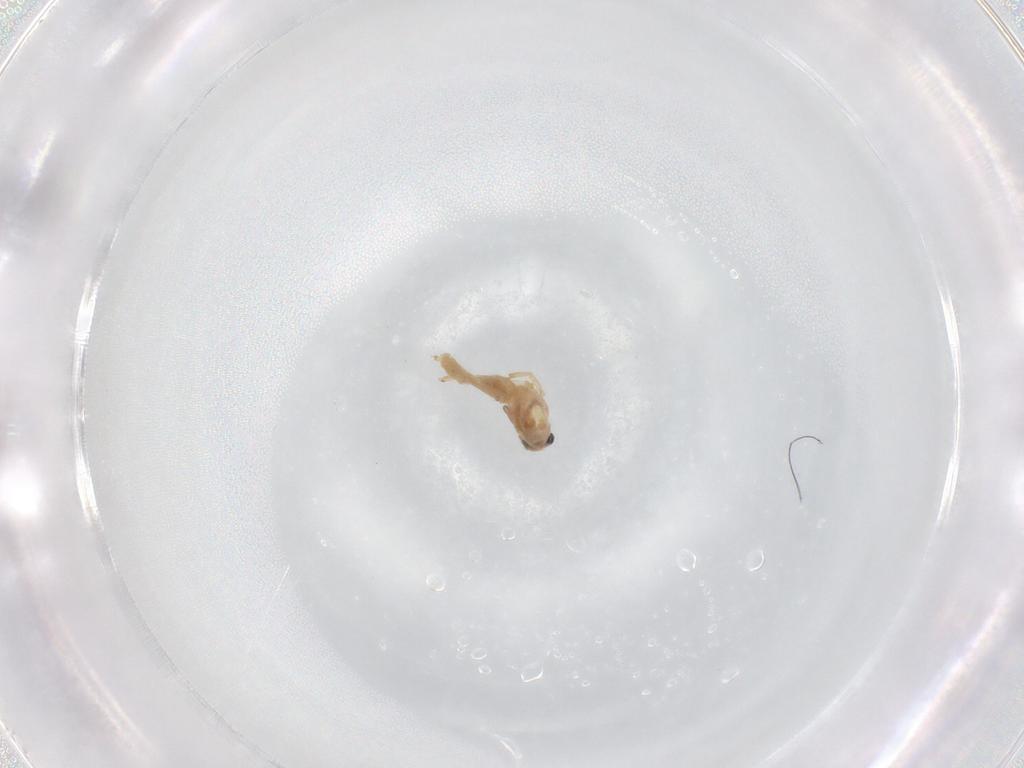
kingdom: Animalia
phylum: Arthropoda
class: Insecta
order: Diptera
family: Chironomidae
